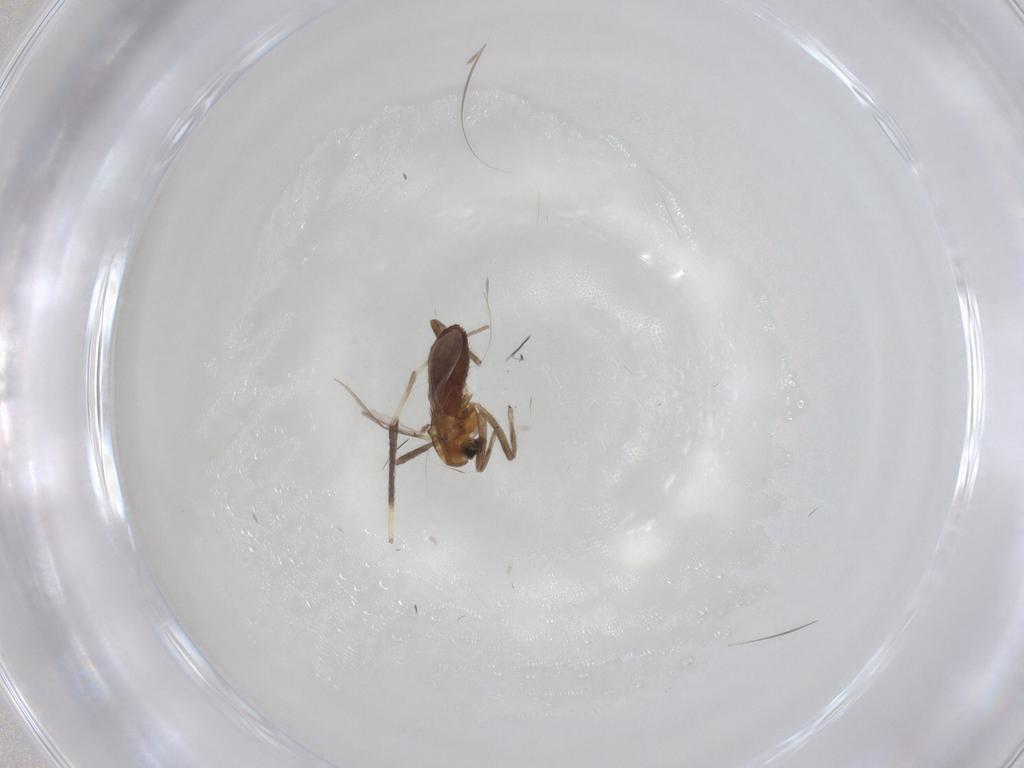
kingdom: Animalia
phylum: Arthropoda
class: Insecta
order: Diptera
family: Chironomidae
